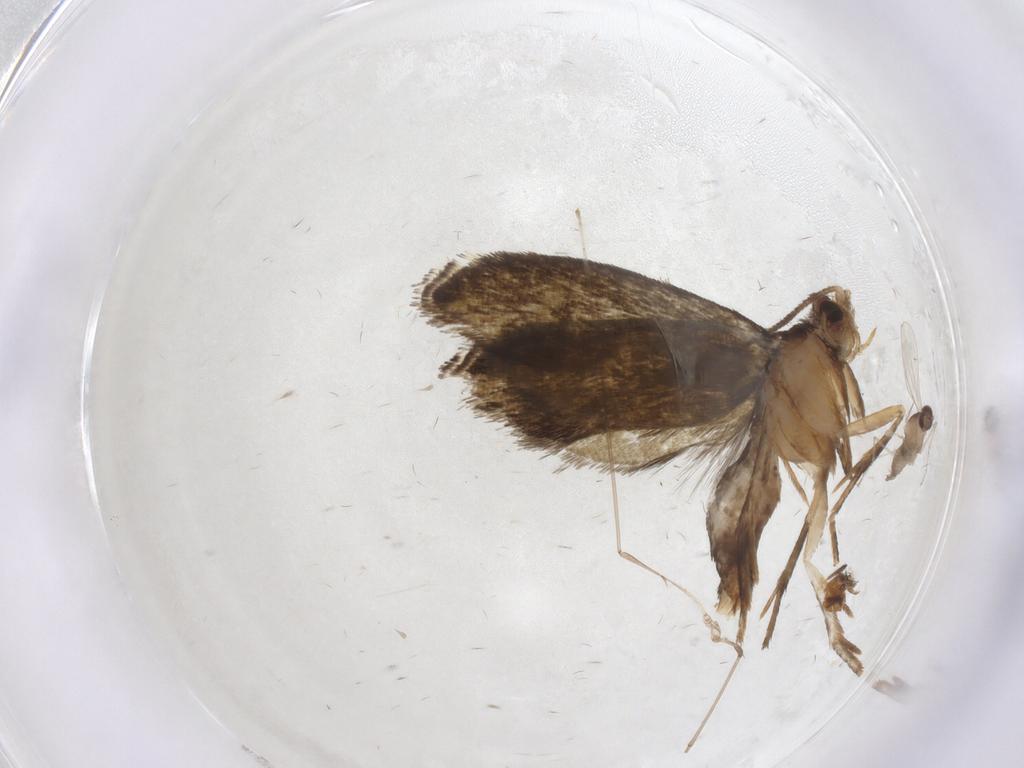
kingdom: Animalia
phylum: Arthropoda
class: Insecta
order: Lepidoptera
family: Tineidae
